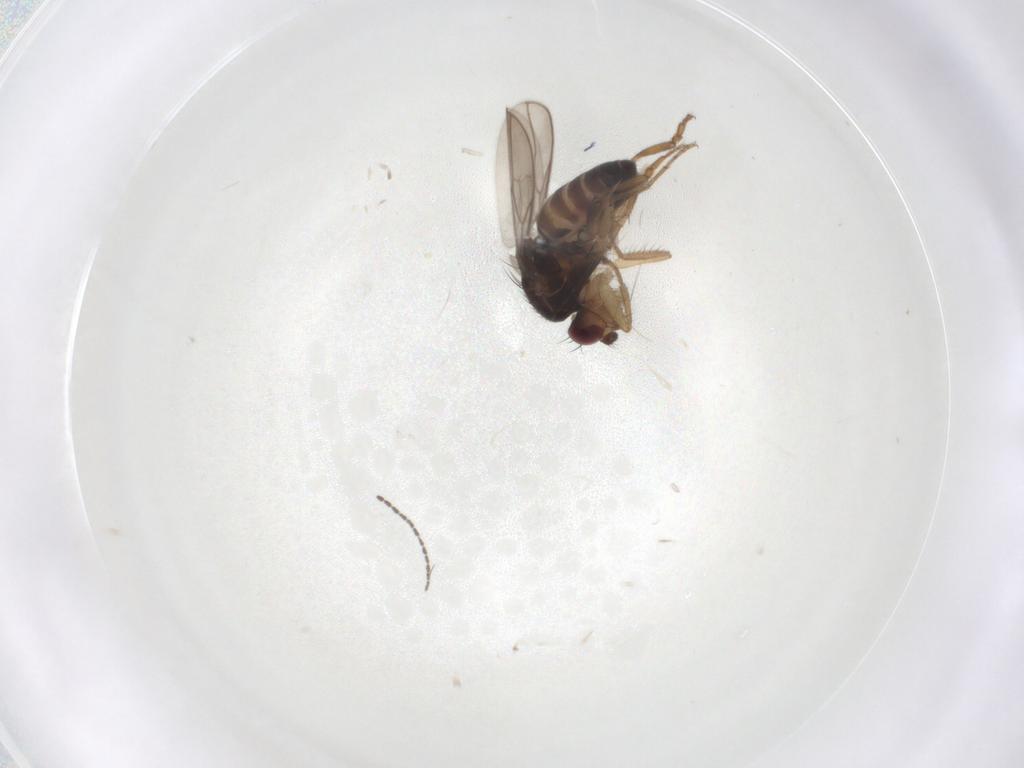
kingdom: Animalia
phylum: Arthropoda
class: Insecta
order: Diptera
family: Sphaeroceridae
